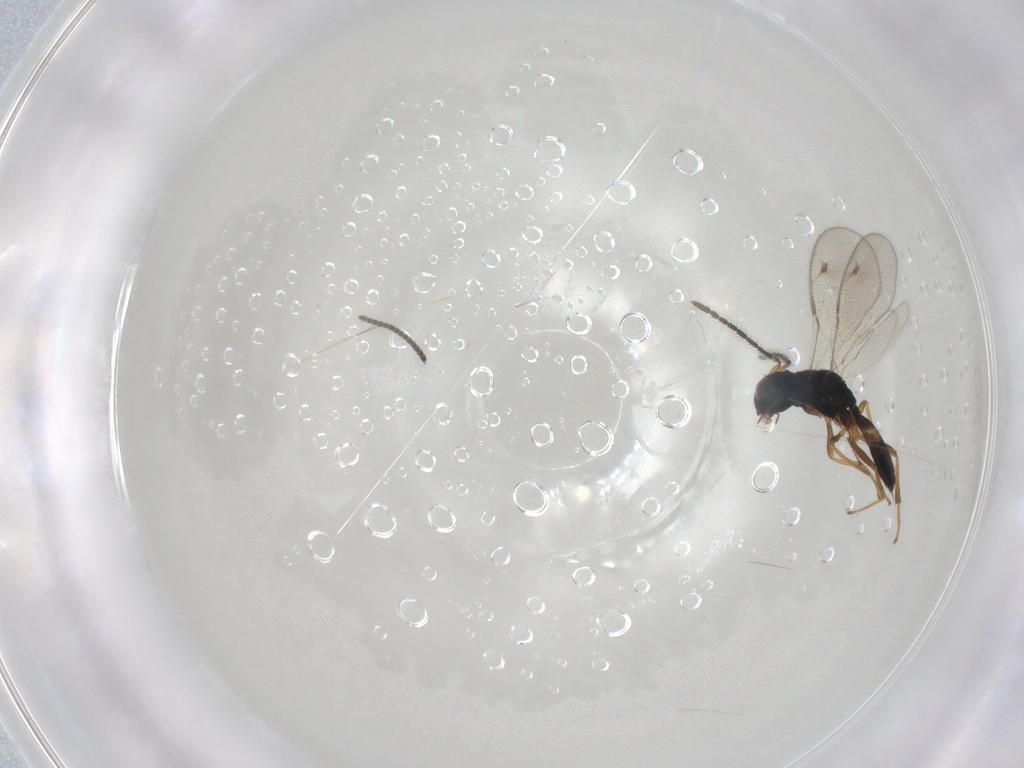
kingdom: Animalia
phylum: Arthropoda
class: Insecta
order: Hymenoptera
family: Pteromalidae
